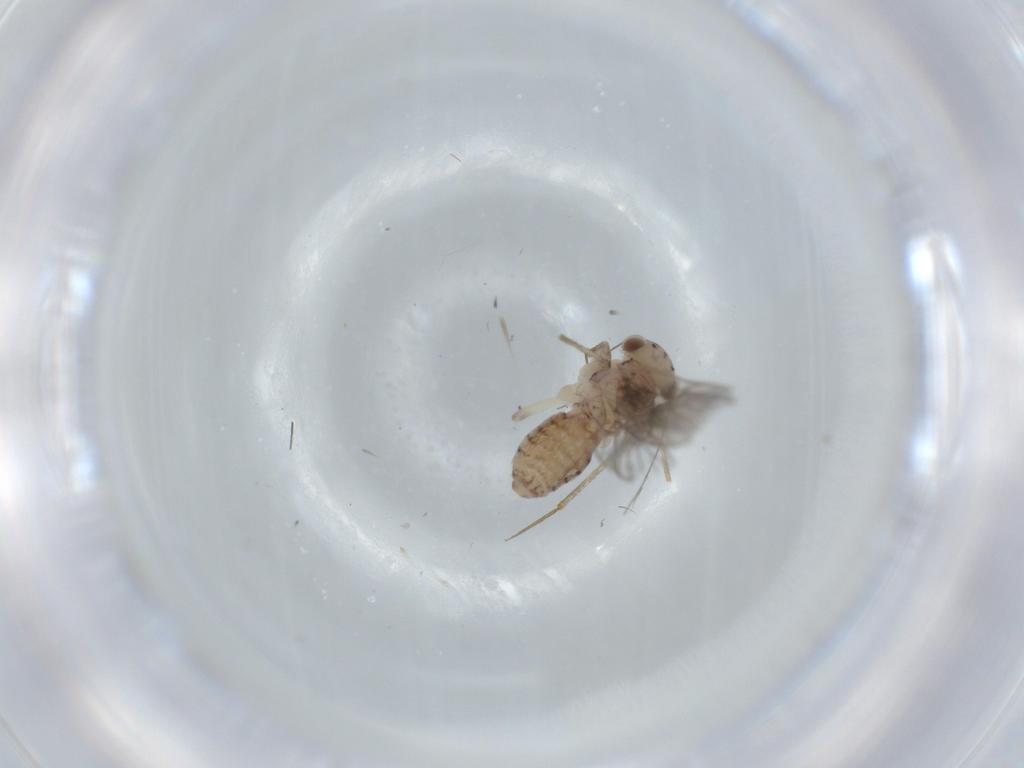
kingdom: Animalia
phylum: Arthropoda
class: Insecta
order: Psocodea
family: Lepidopsocidae
